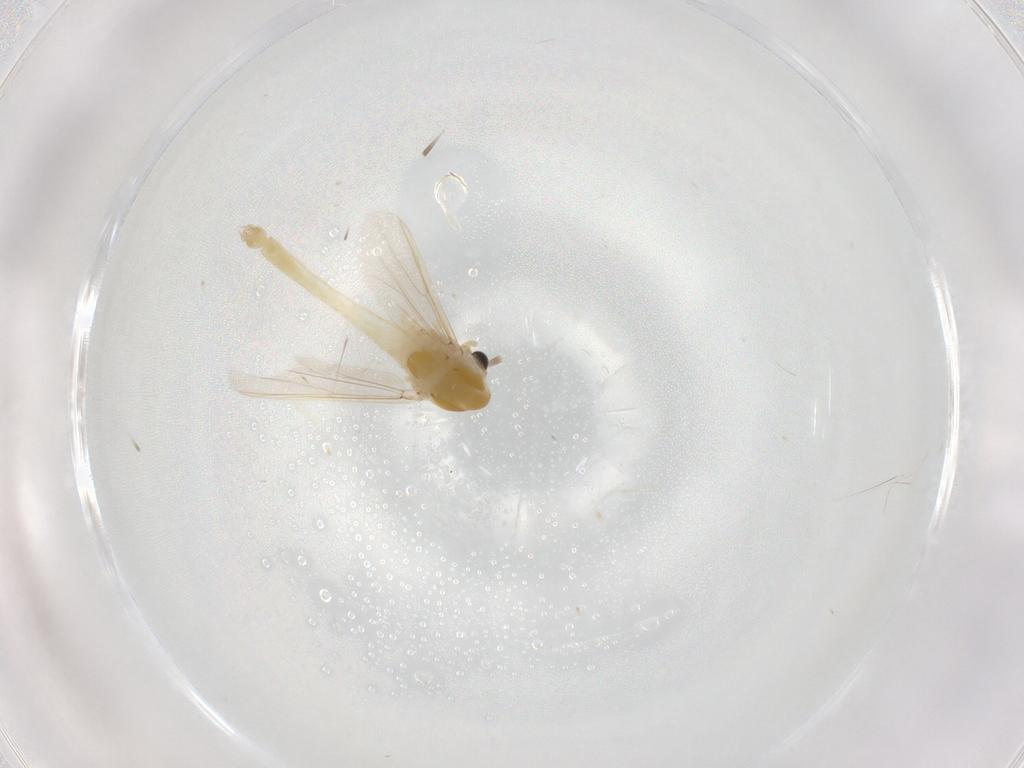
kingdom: Animalia
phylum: Arthropoda
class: Insecta
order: Diptera
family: Chironomidae
